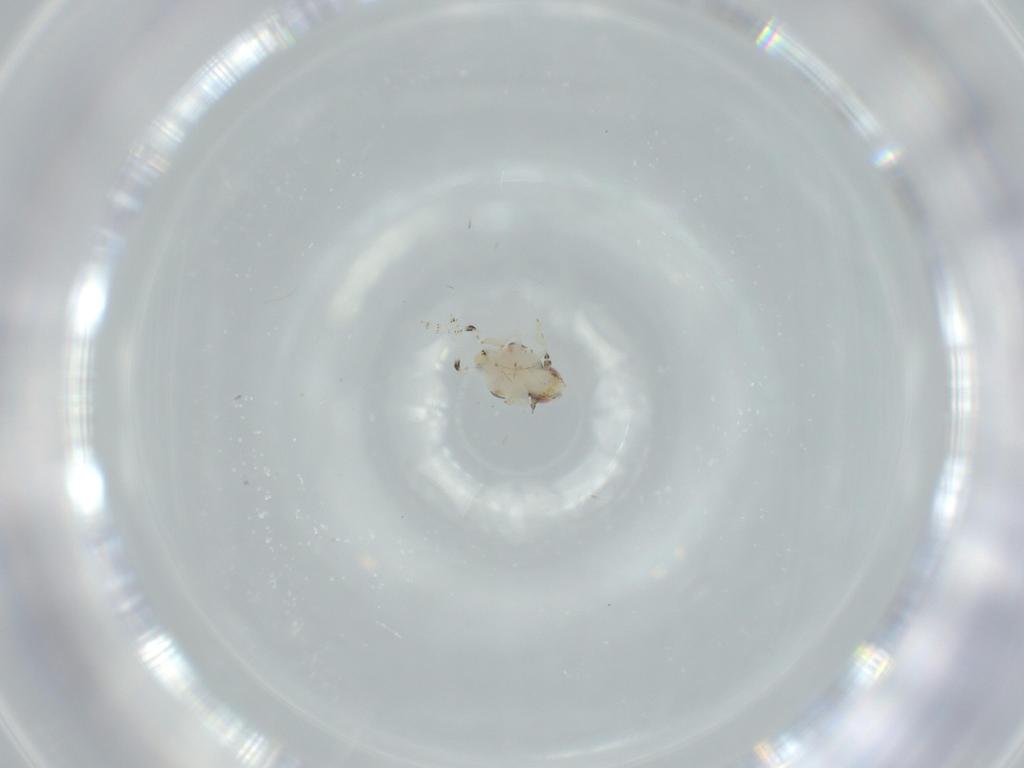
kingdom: Animalia
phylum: Arthropoda
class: Insecta
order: Hemiptera
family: Nogodinidae
